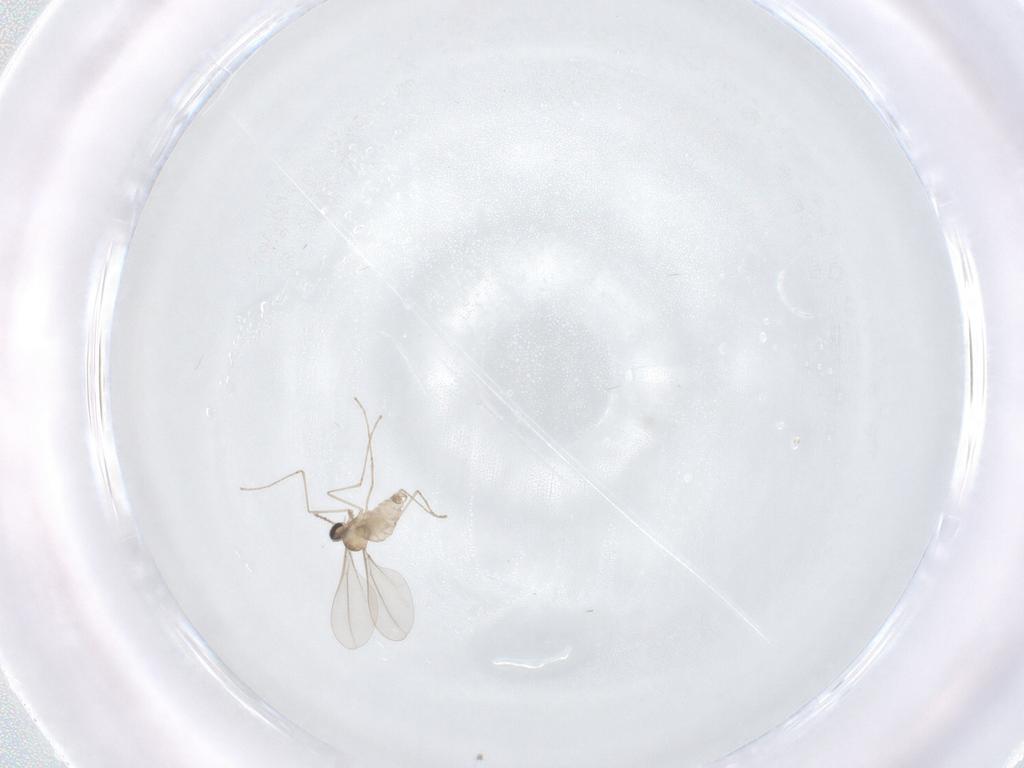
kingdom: Animalia
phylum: Arthropoda
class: Insecta
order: Diptera
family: Cecidomyiidae
